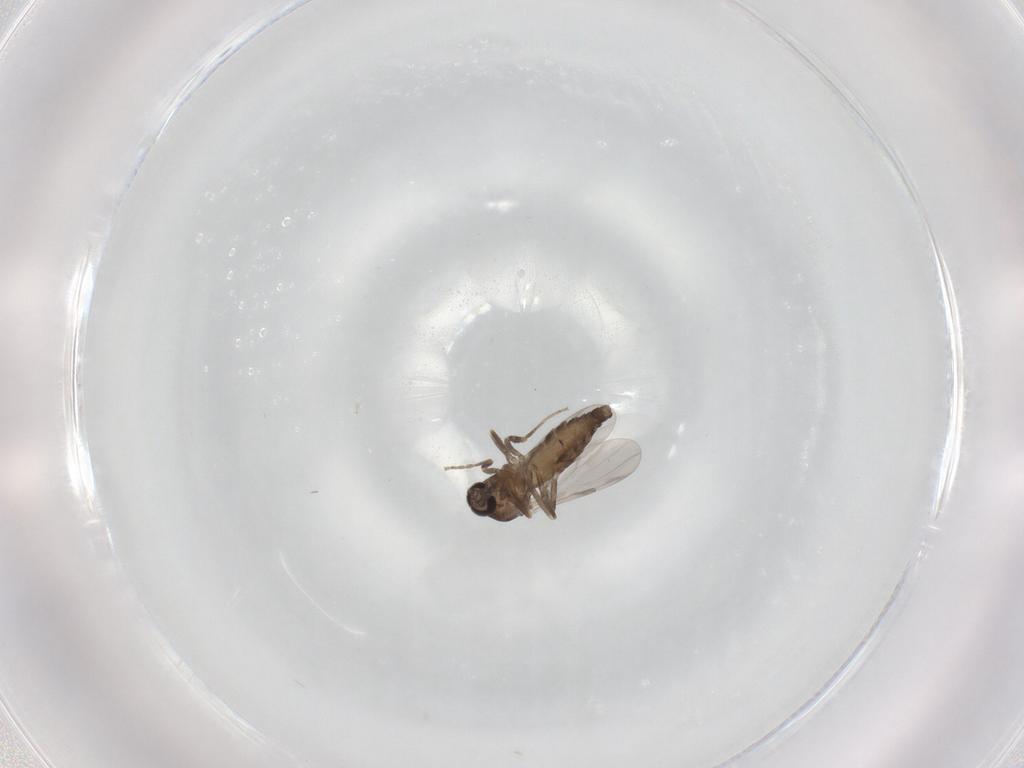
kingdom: Animalia
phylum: Arthropoda
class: Insecta
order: Diptera
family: Ceratopogonidae
